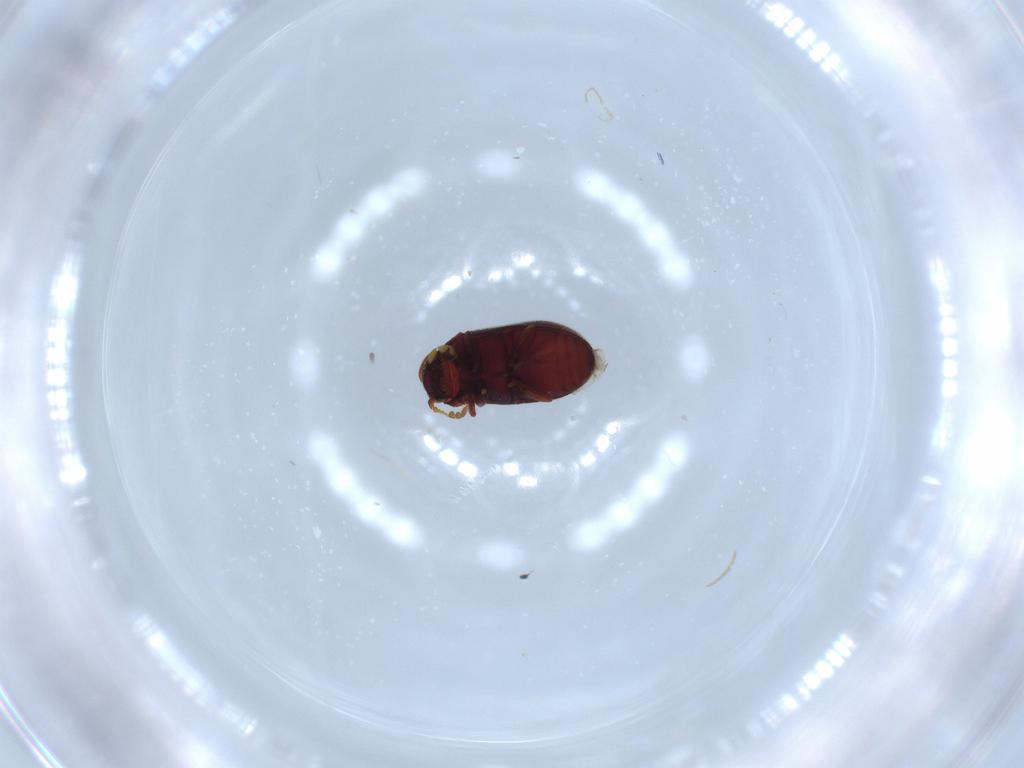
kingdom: Animalia
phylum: Arthropoda
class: Insecta
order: Coleoptera
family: Anobiidae
